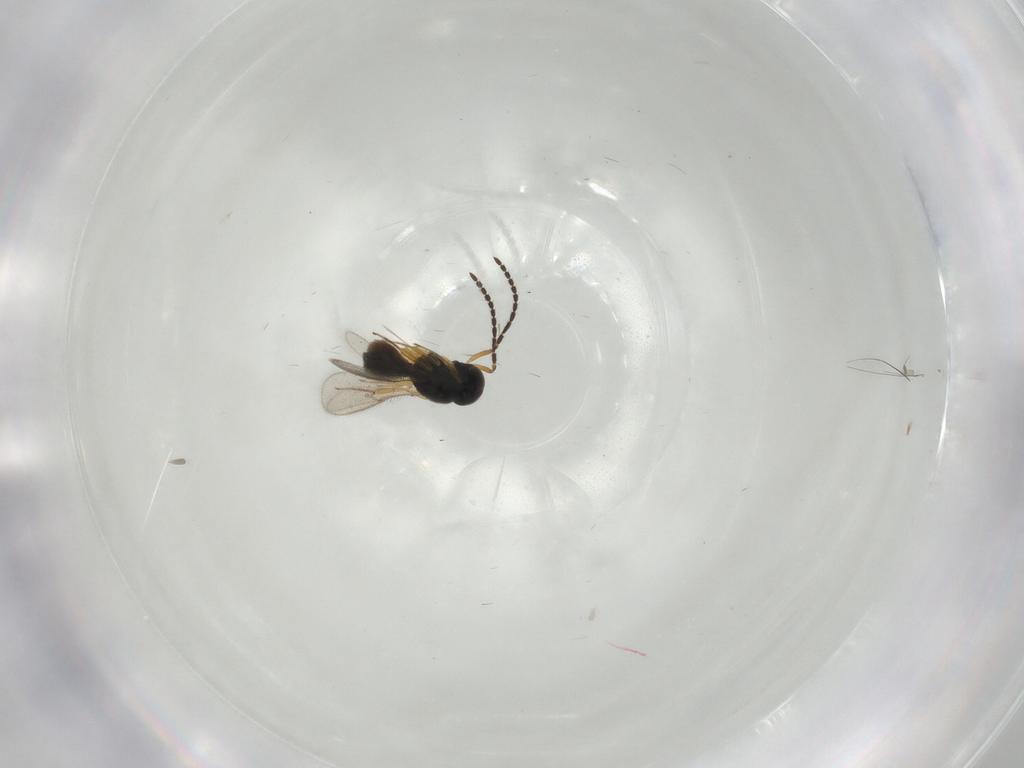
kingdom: Animalia
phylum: Arthropoda
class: Insecta
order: Hymenoptera
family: Scelionidae
